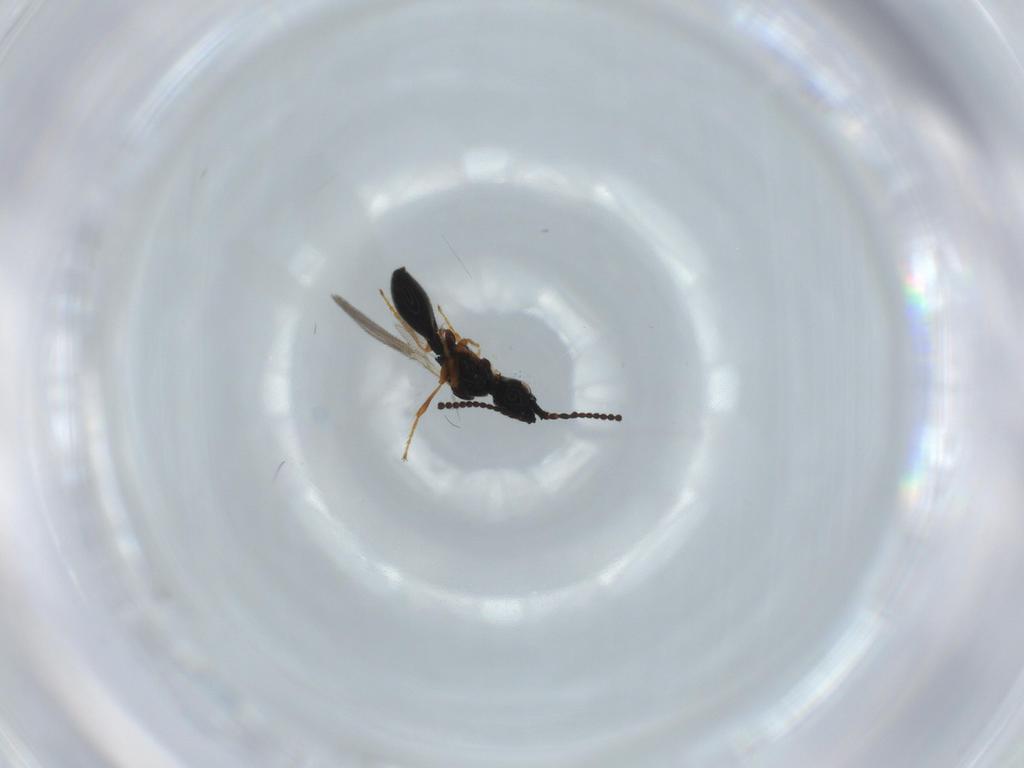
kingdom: Animalia
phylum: Arthropoda
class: Insecta
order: Hymenoptera
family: Diapriidae
